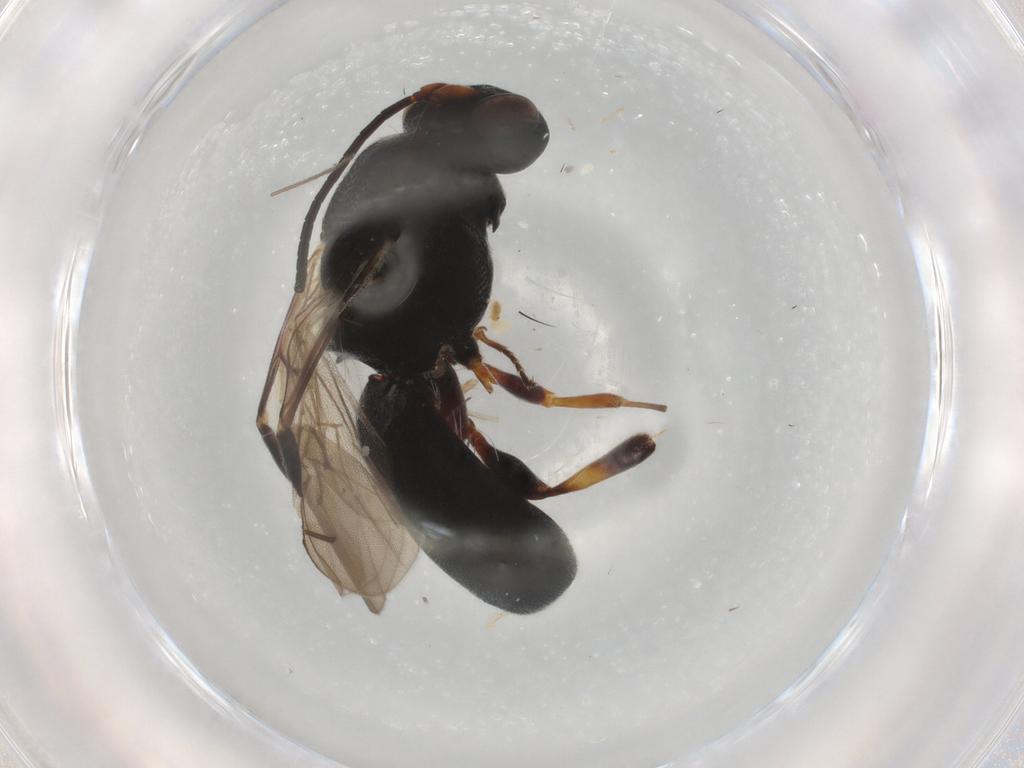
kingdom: Animalia
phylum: Arthropoda
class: Insecta
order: Hymenoptera
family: Braconidae
